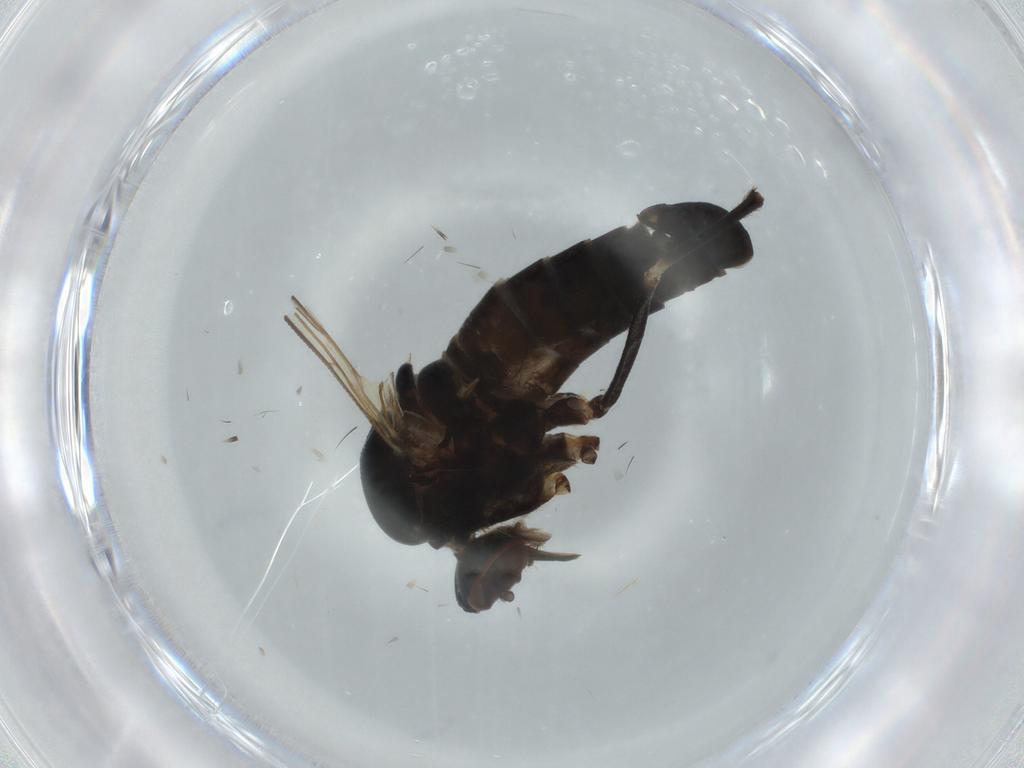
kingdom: Animalia
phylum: Arthropoda
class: Insecta
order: Diptera
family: Empididae
